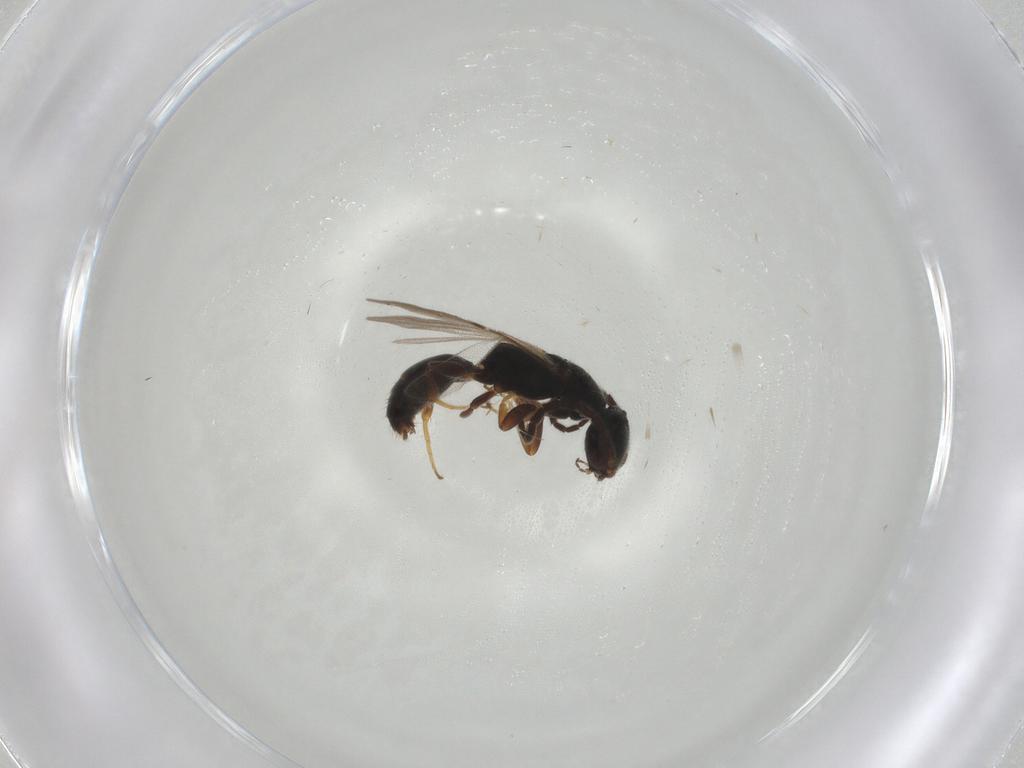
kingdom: Animalia
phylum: Arthropoda
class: Insecta
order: Hymenoptera
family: Bethylidae
